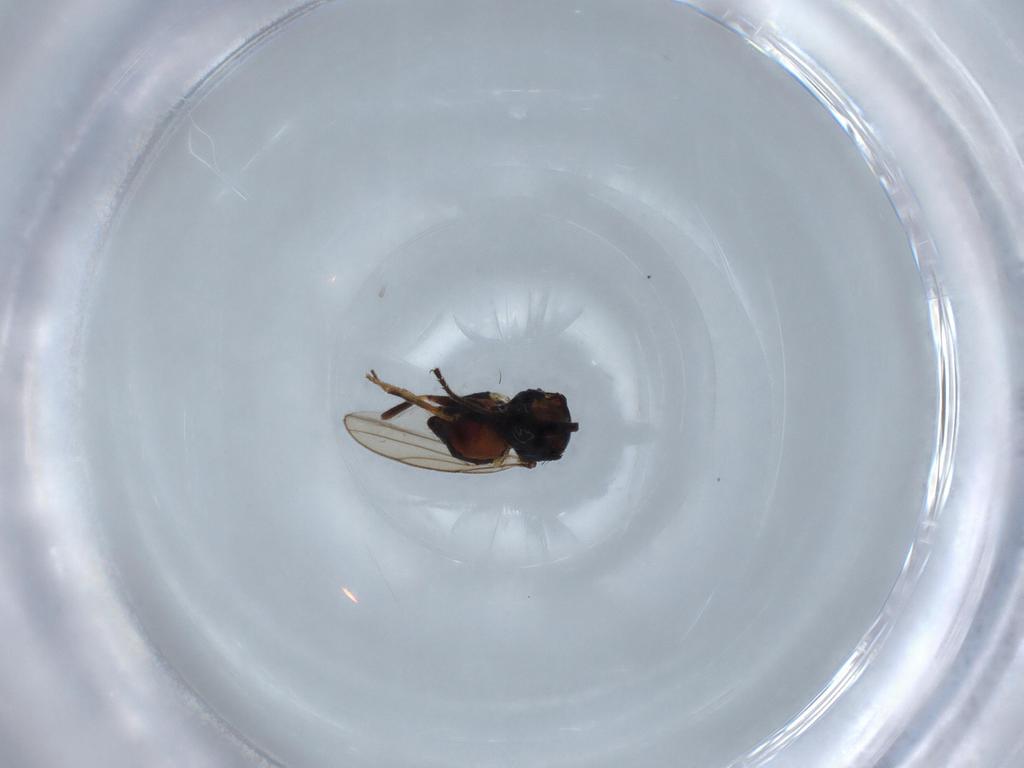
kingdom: Animalia
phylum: Arthropoda
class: Insecta
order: Diptera
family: Chloropidae
